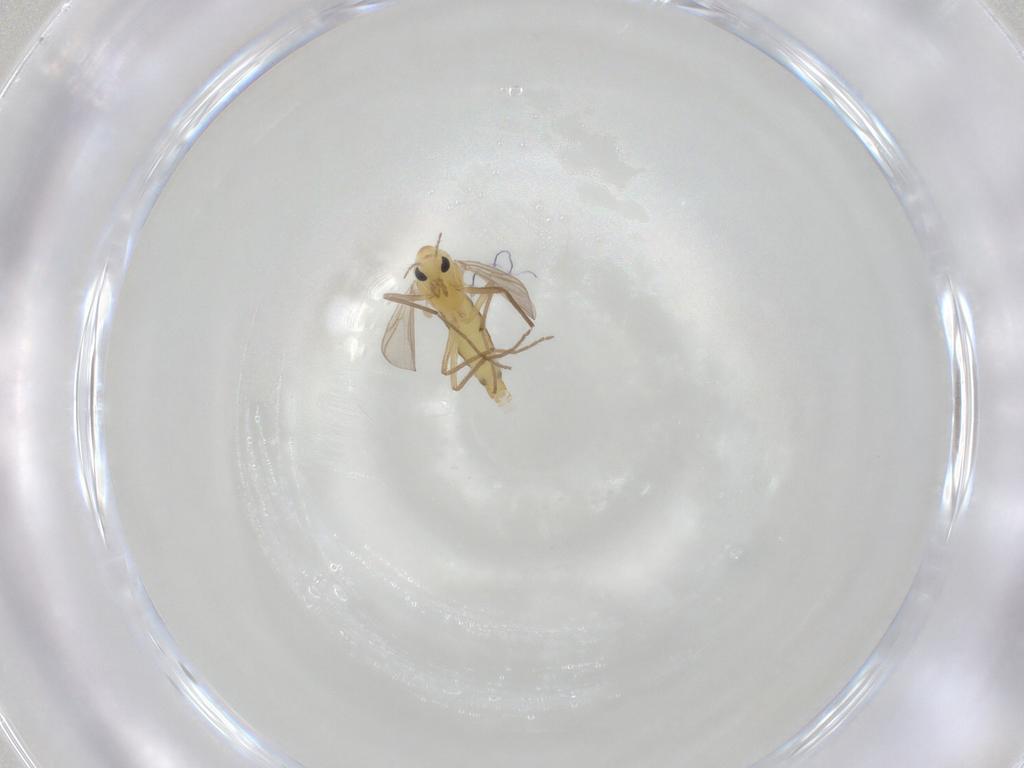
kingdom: Animalia
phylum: Arthropoda
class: Insecta
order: Diptera
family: Chironomidae
